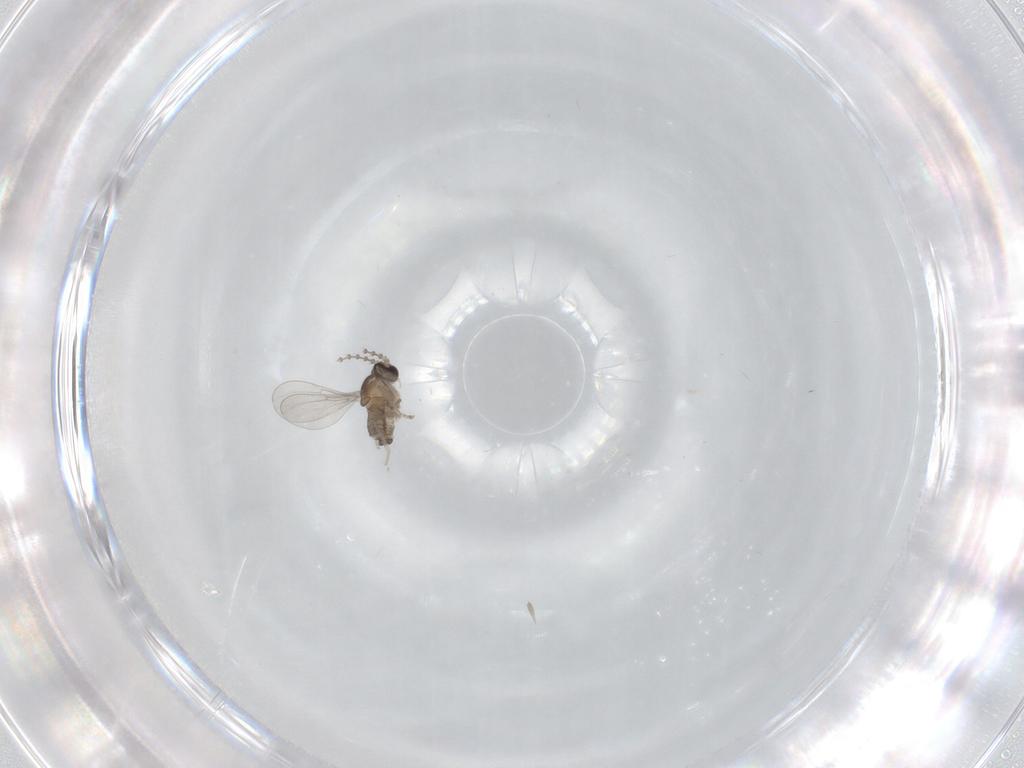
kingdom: Animalia
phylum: Arthropoda
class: Insecta
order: Diptera
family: Cecidomyiidae
